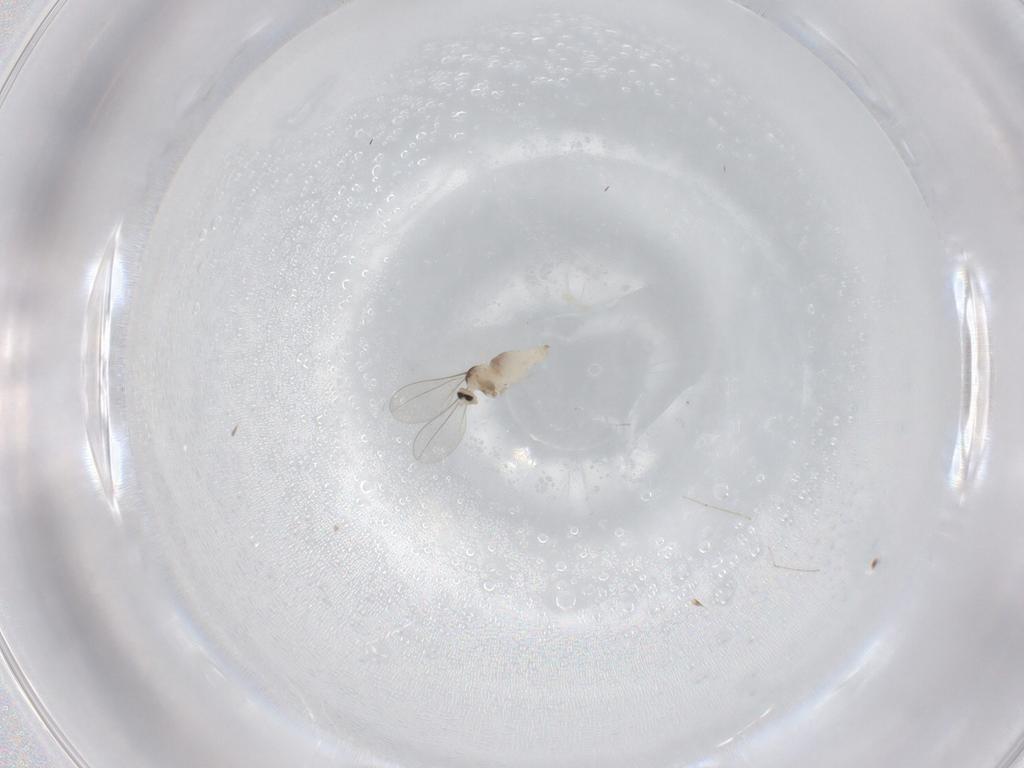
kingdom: Animalia
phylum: Arthropoda
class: Insecta
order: Diptera
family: Cecidomyiidae
